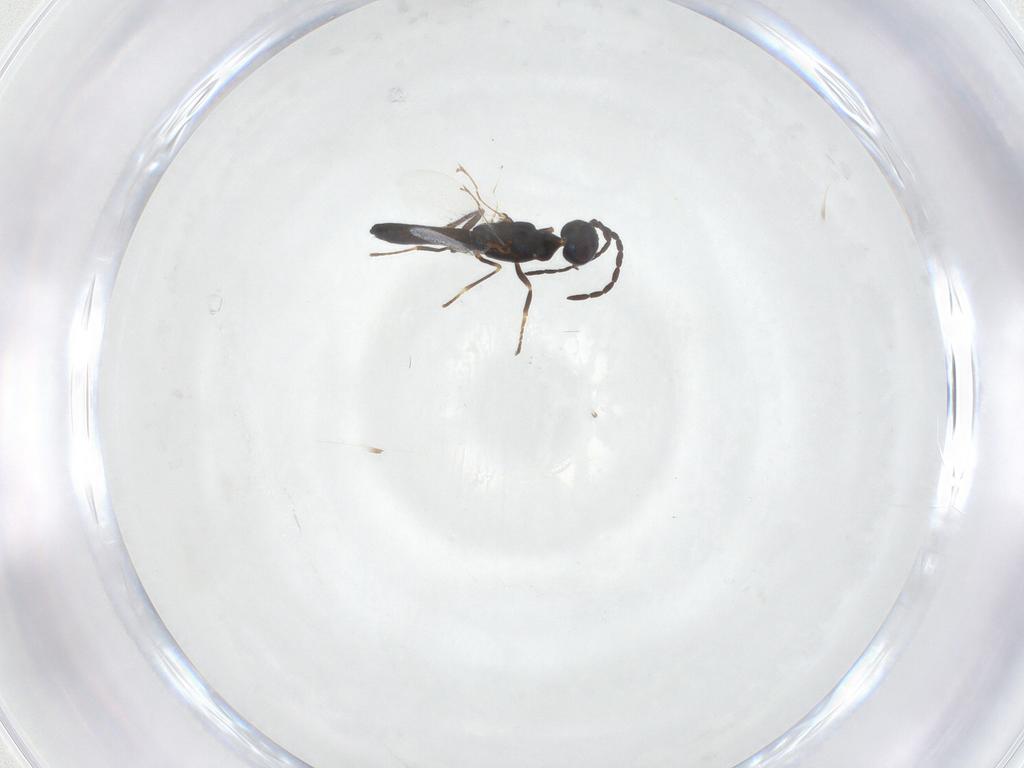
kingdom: Animalia
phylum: Arthropoda
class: Insecta
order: Hymenoptera
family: Eupelmidae
